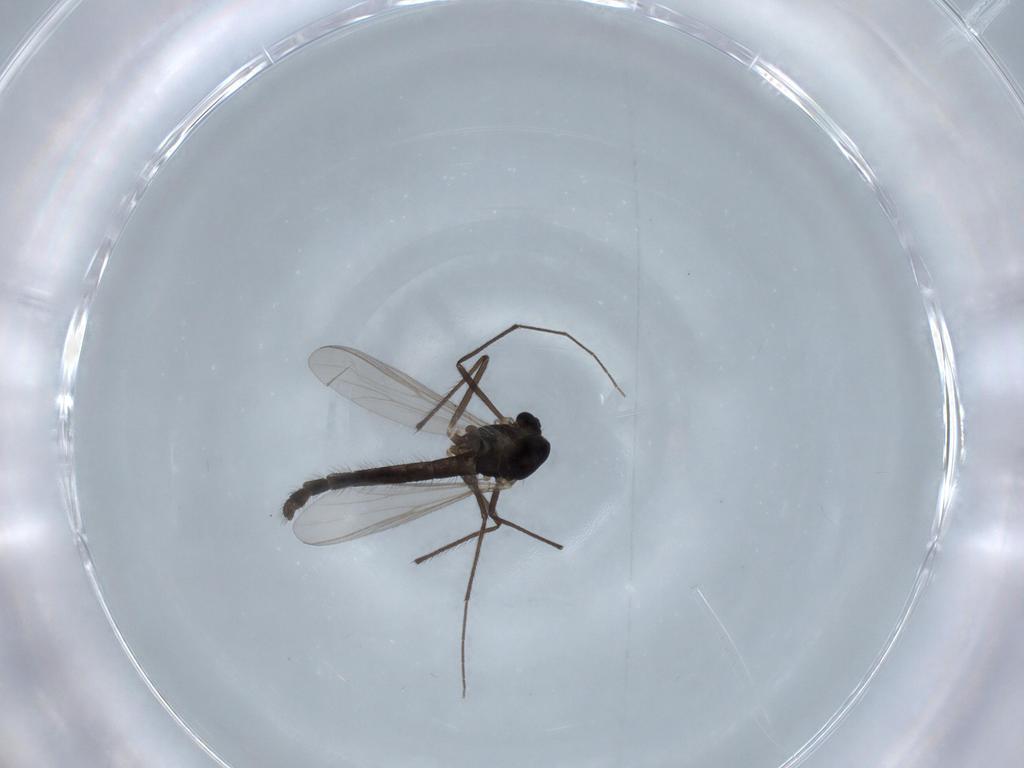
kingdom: Animalia
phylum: Arthropoda
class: Insecta
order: Diptera
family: Chironomidae
